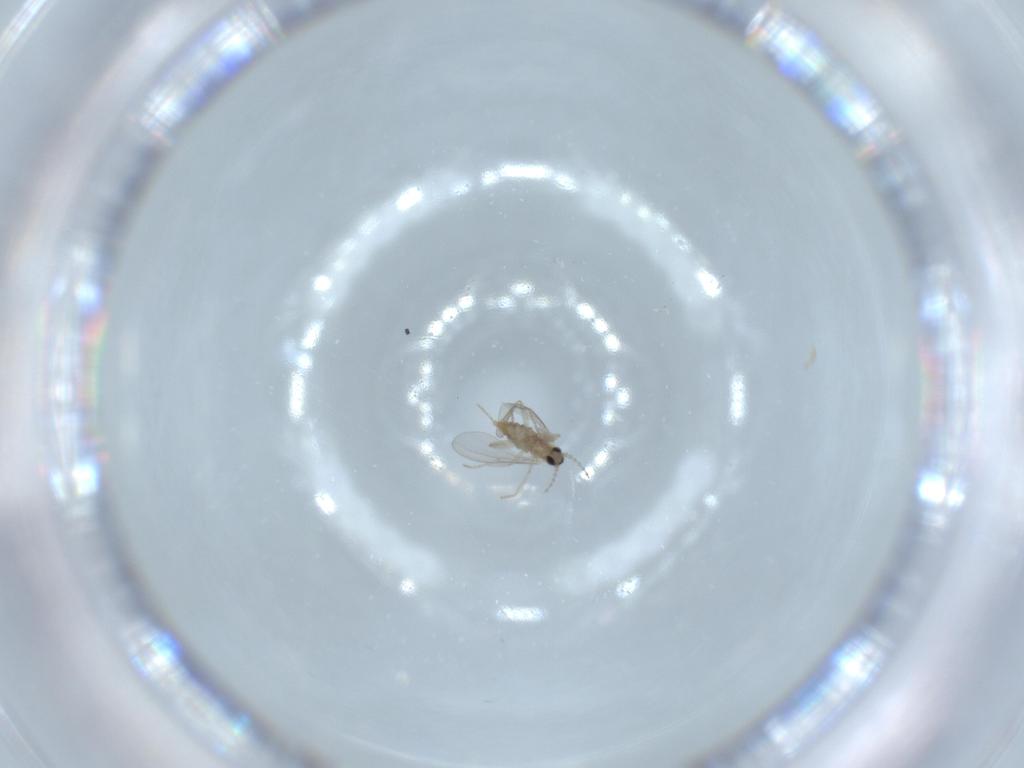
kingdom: Animalia
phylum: Arthropoda
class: Insecta
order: Diptera
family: Cecidomyiidae
